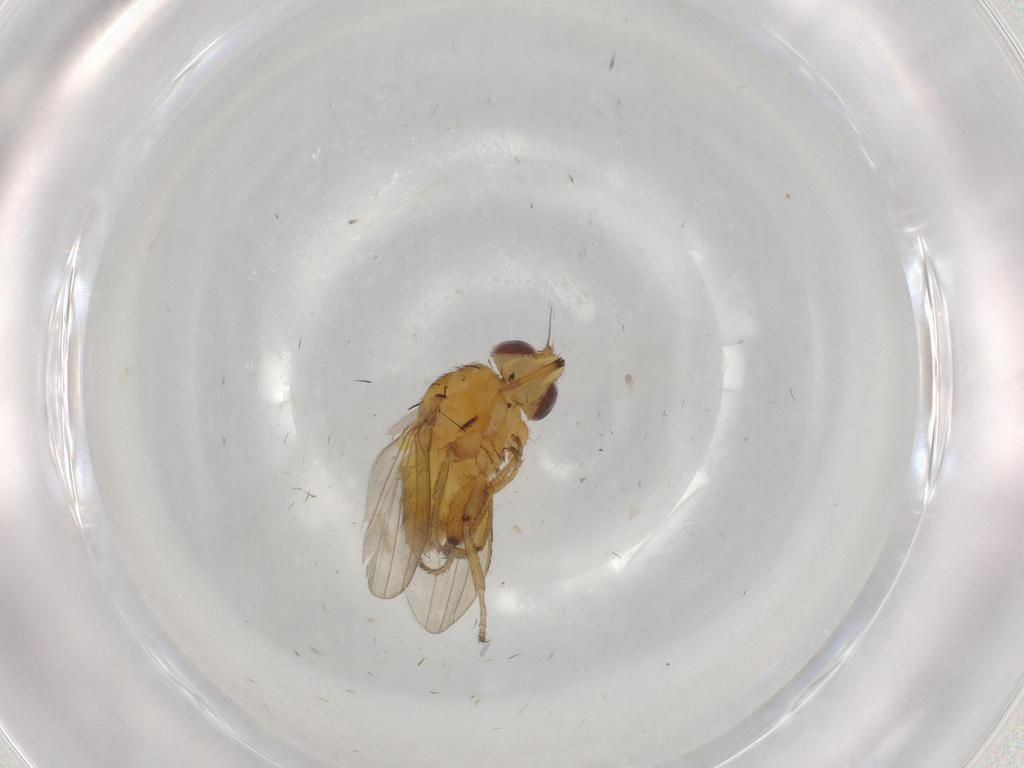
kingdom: Animalia
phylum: Arthropoda
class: Insecta
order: Diptera
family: Milichiidae
